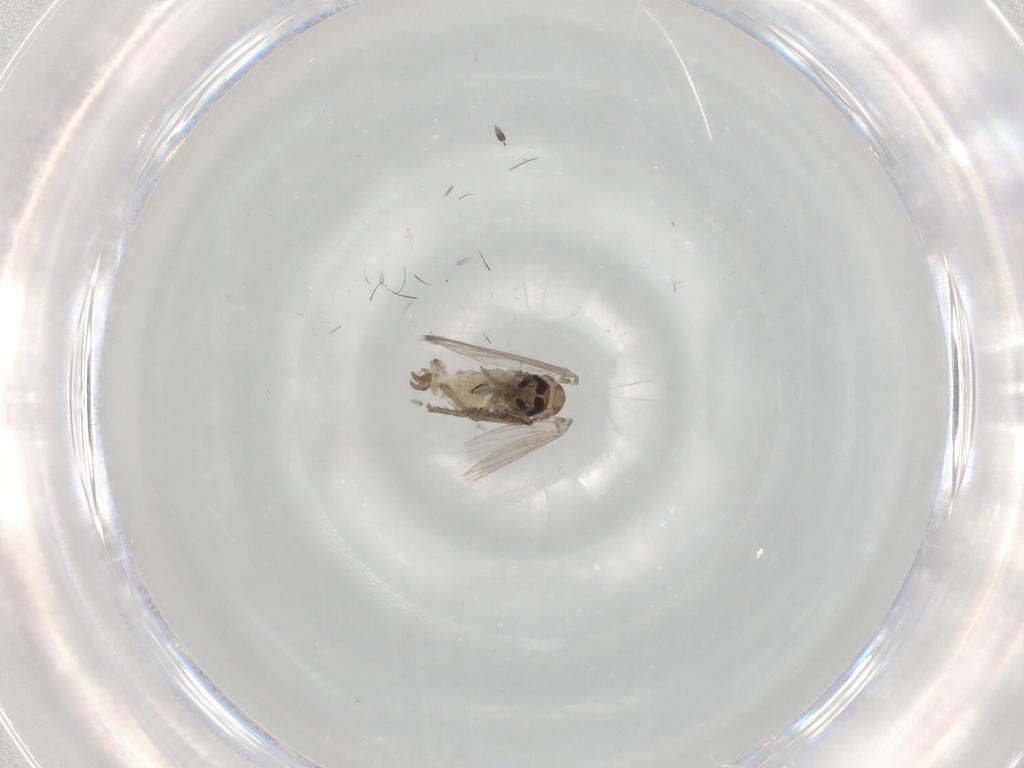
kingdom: Animalia
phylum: Arthropoda
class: Insecta
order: Diptera
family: Psychodidae
